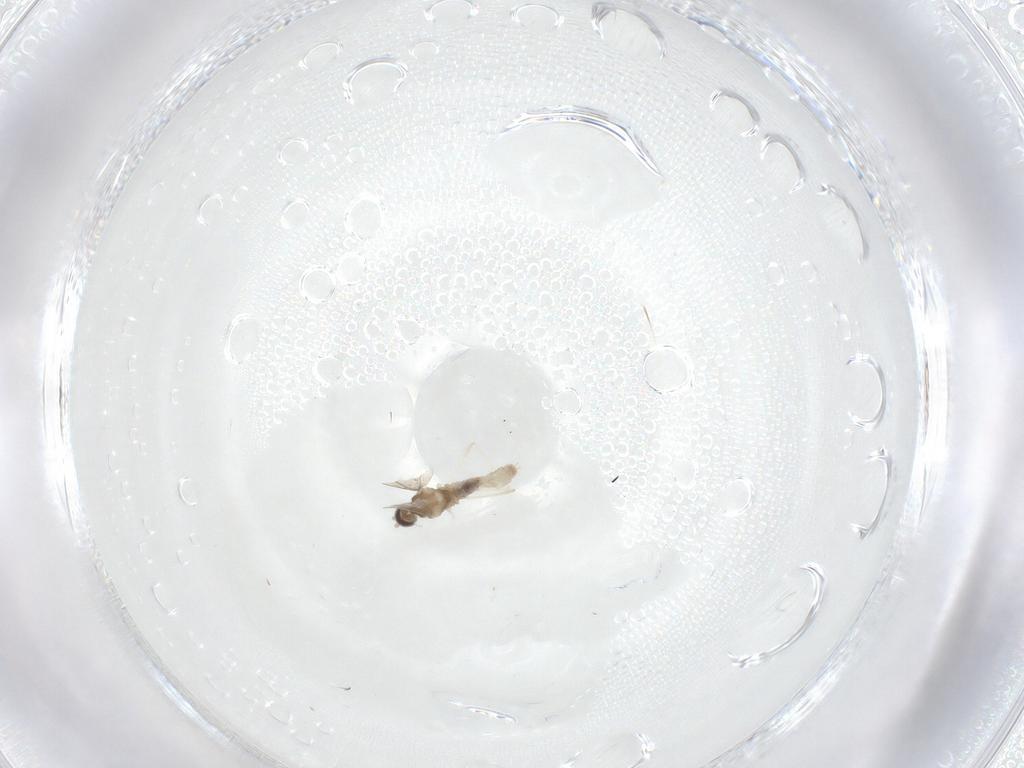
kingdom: Animalia
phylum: Arthropoda
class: Insecta
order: Diptera
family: Cecidomyiidae
